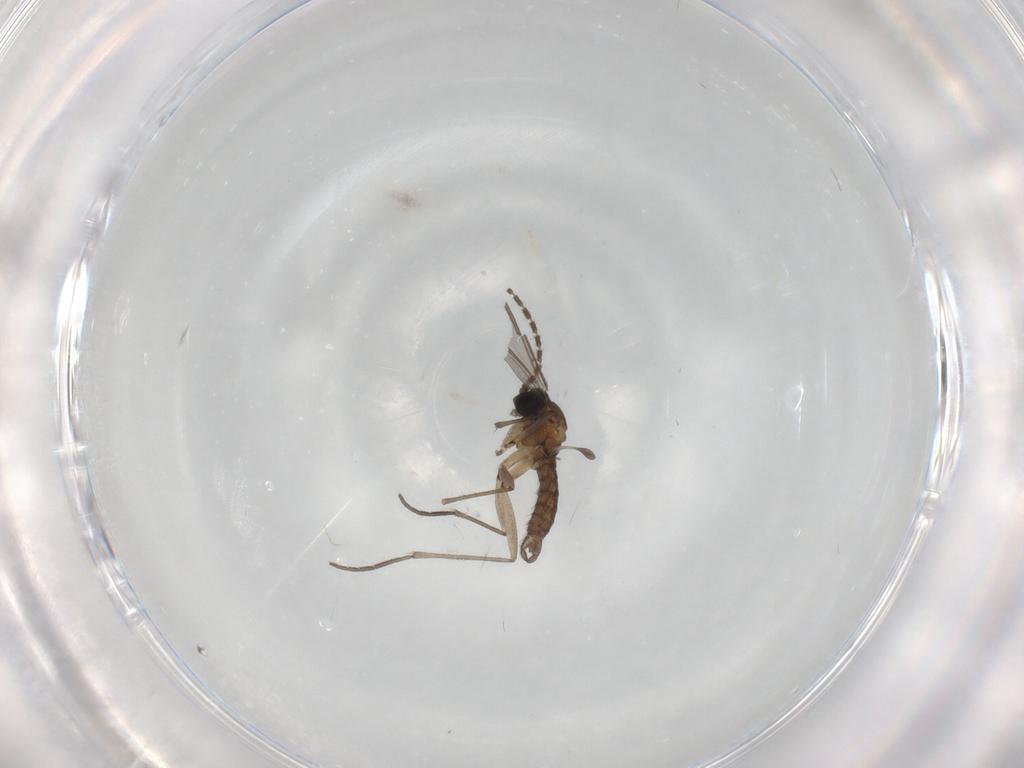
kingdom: Animalia
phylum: Arthropoda
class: Insecta
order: Diptera
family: Sciaridae
